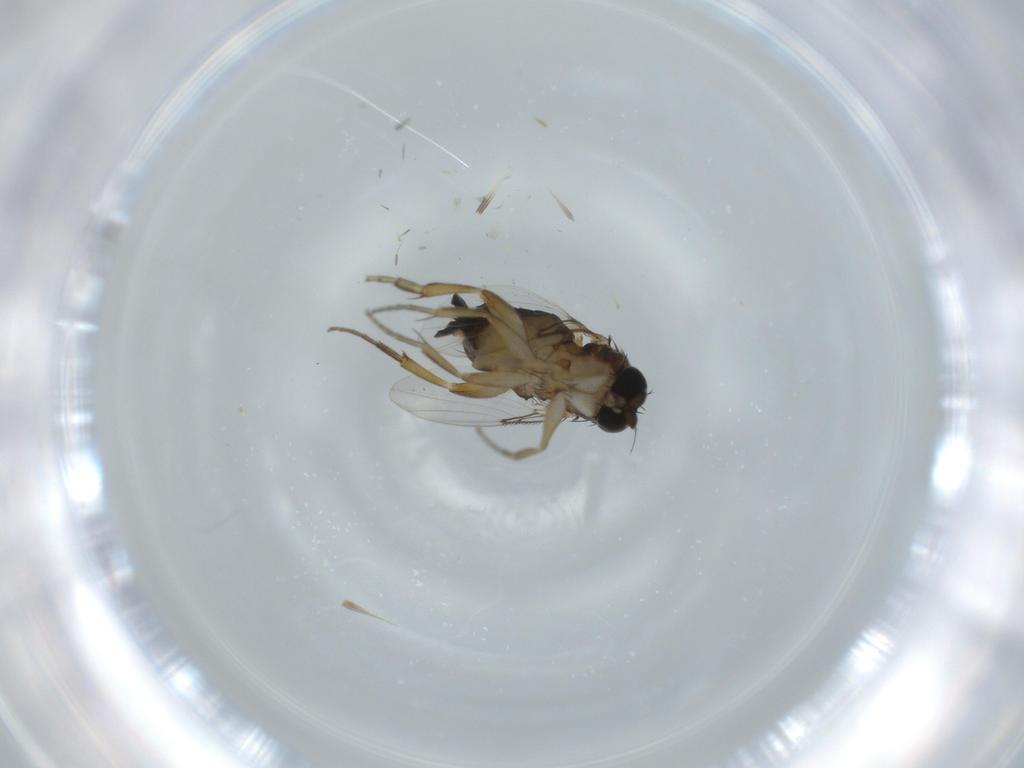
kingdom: Animalia
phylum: Arthropoda
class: Insecta
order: Diptera
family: Phoridae
